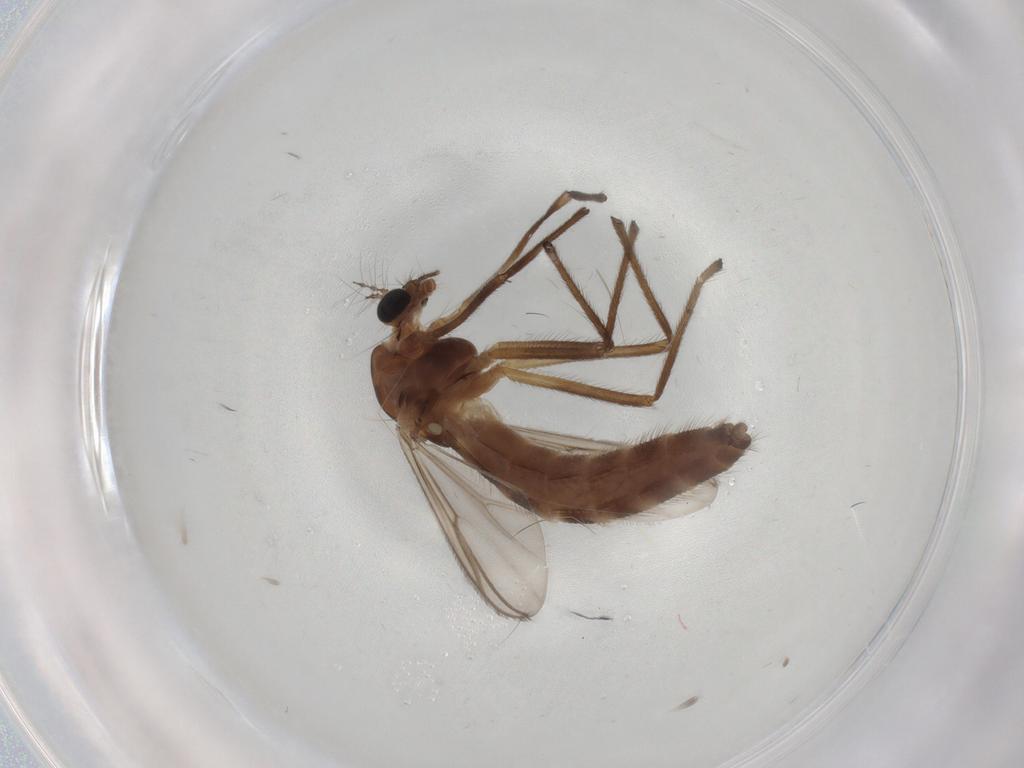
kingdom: Animalia
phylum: Arthropoda
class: Insecta
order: Diptera
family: Chironomidae
